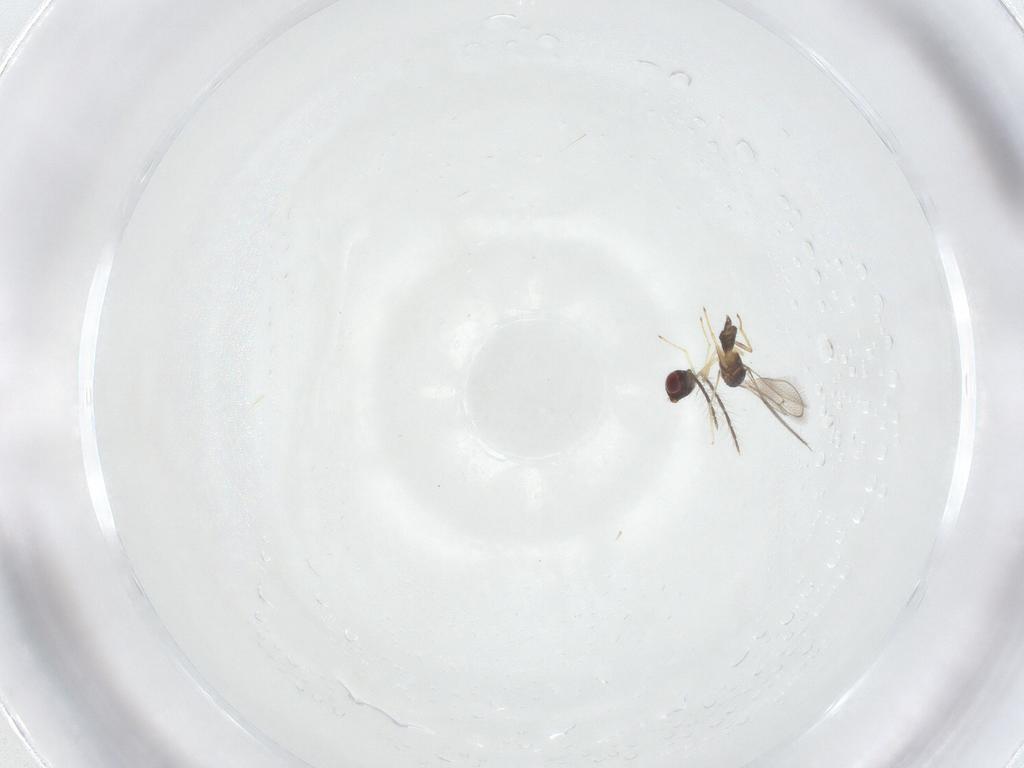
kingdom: Animalia
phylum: Arthropoda
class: Insecta
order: Hymenoptera
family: Eulophidae
